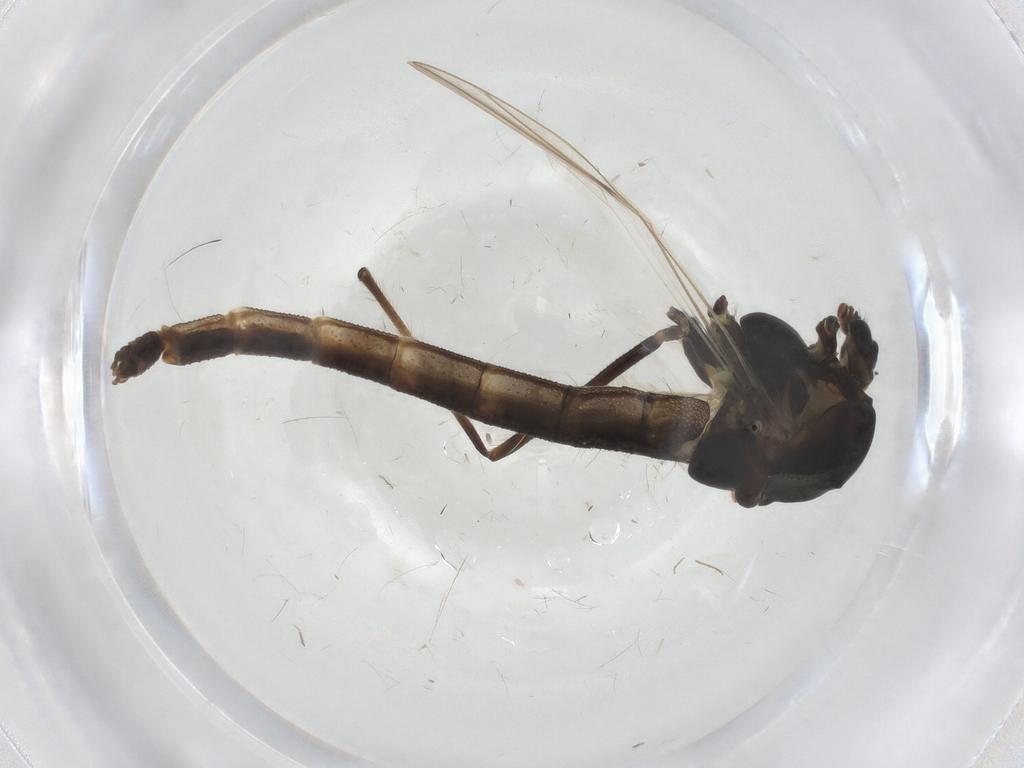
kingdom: Animalia
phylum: Arthropoda
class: Insecta
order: Diptera
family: Chironomidae
